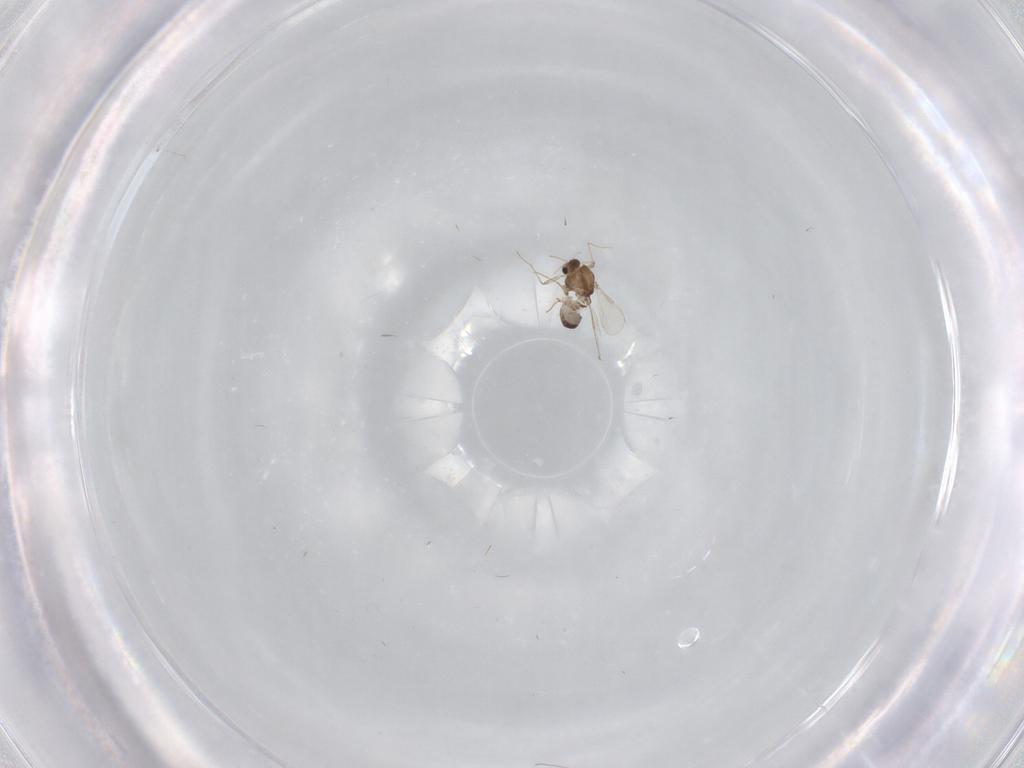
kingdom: Animalia
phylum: Arthropoda
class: Insecta
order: Diptera
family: Chironomidae
